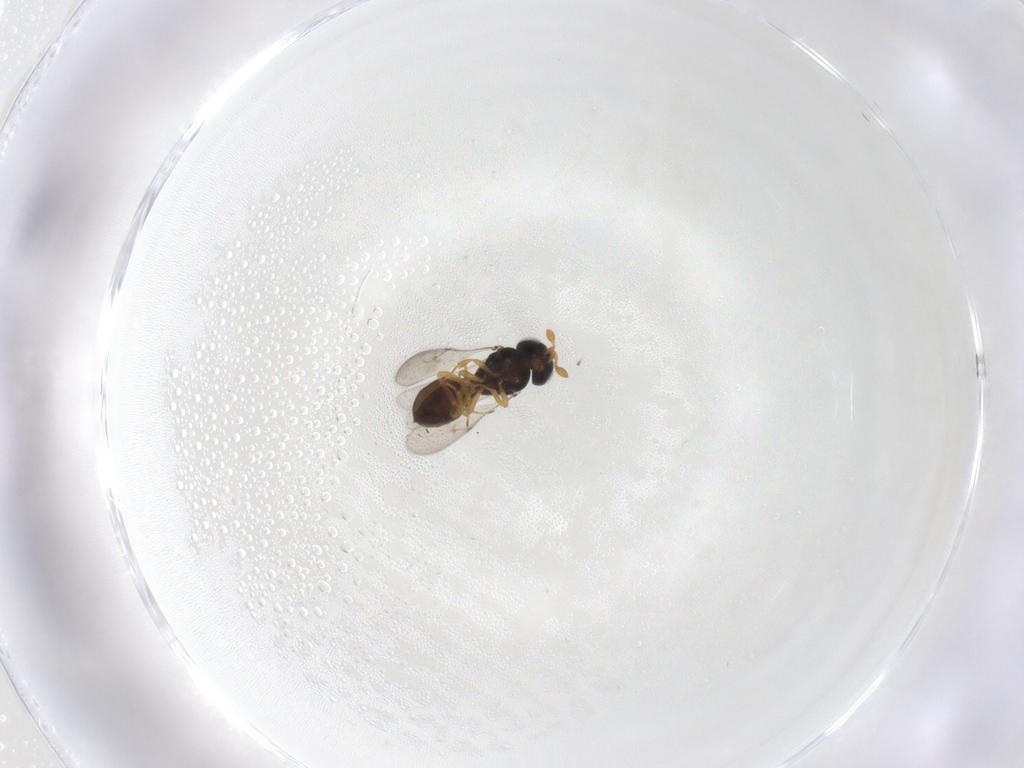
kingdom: Animalia
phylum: Arthropoda
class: Insecta
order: Hymenoptera
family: Scelionidae
